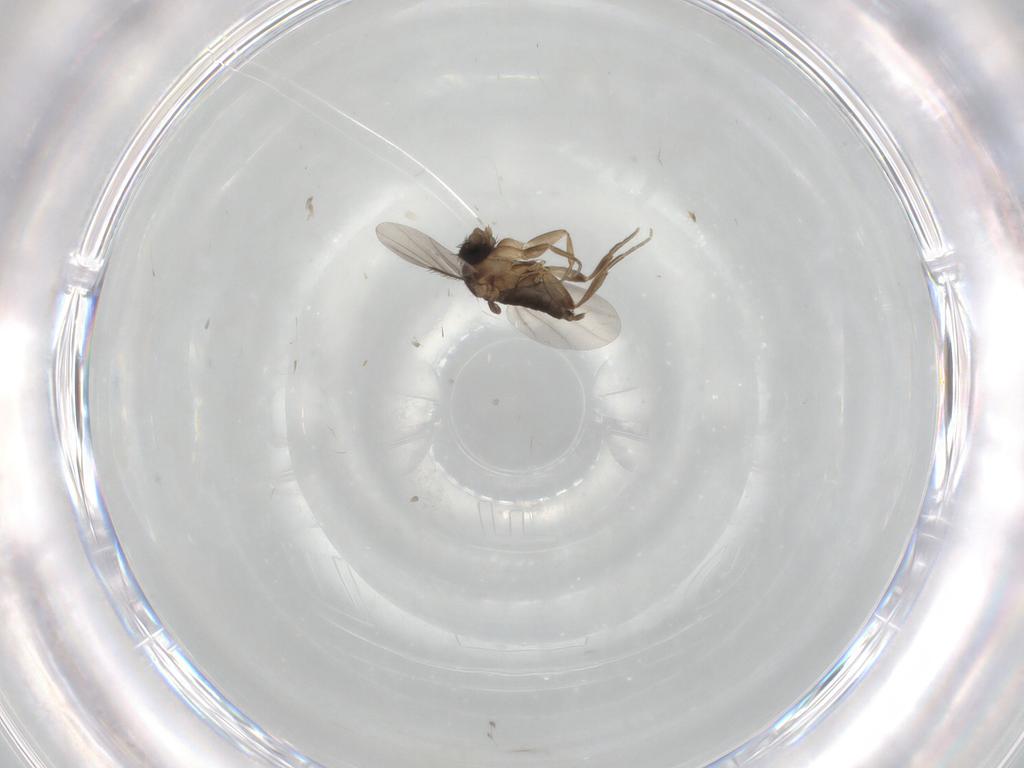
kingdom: Animalia
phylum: Arthropoda
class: Insecta
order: Diptera
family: Phoridae
